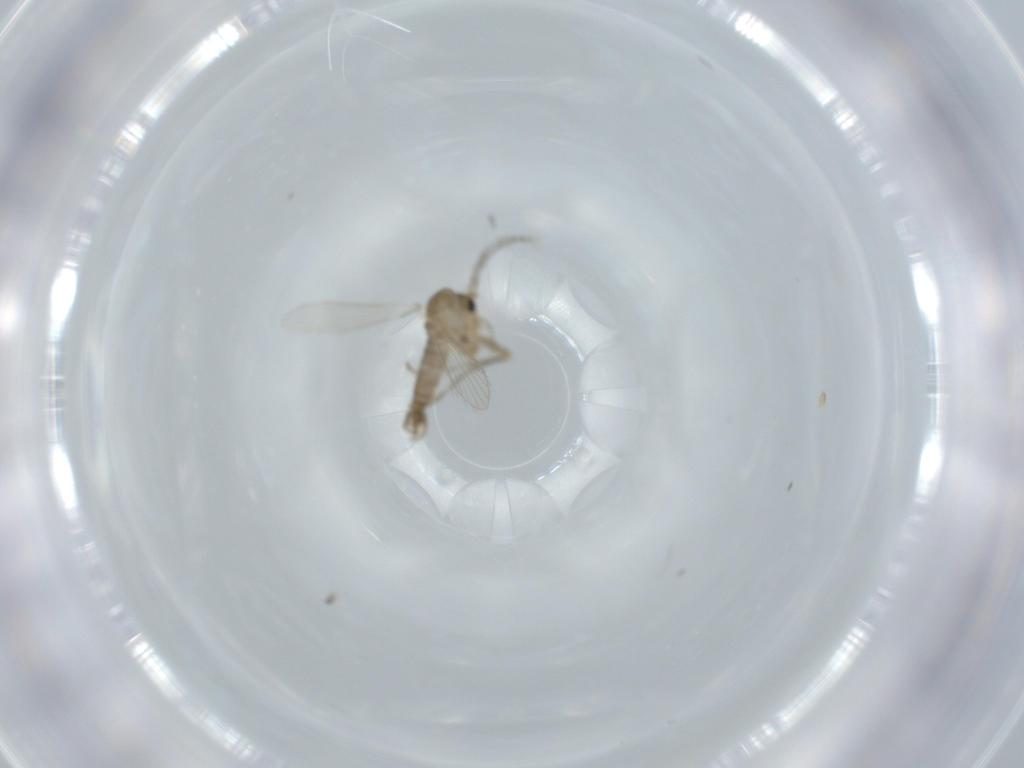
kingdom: Animalia
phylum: Arthropoda
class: Insecta
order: Diptera
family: Psychodidae
